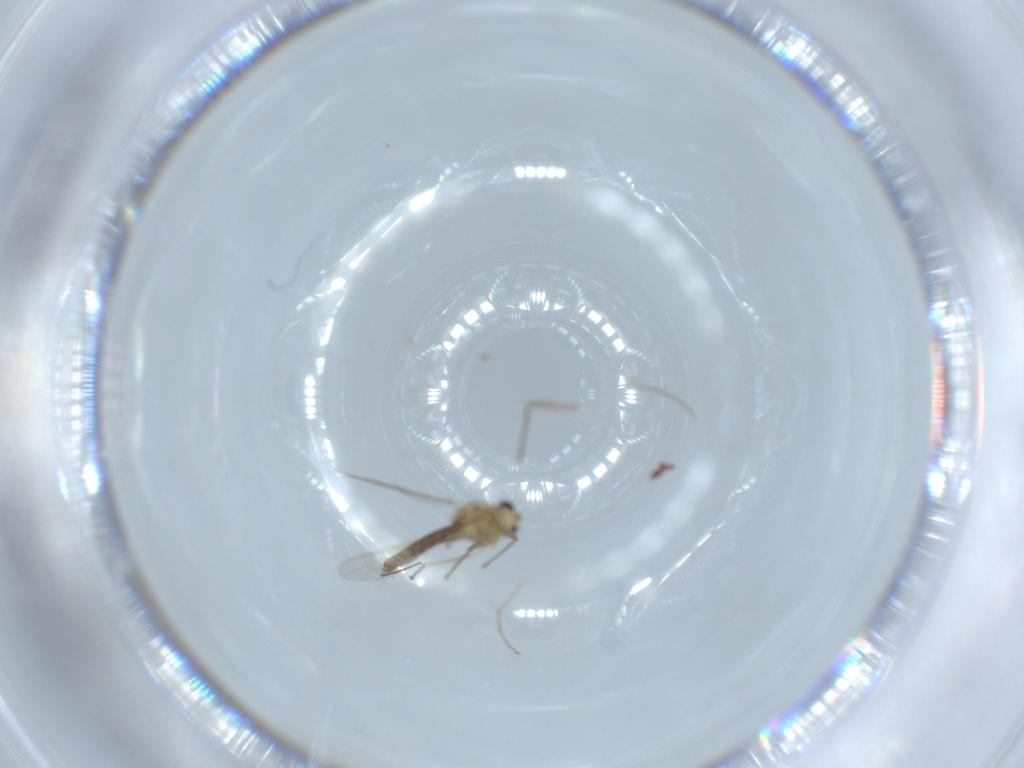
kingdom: Animalia
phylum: Arthropoda
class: Insecta
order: Diptera
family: Chironomidae
